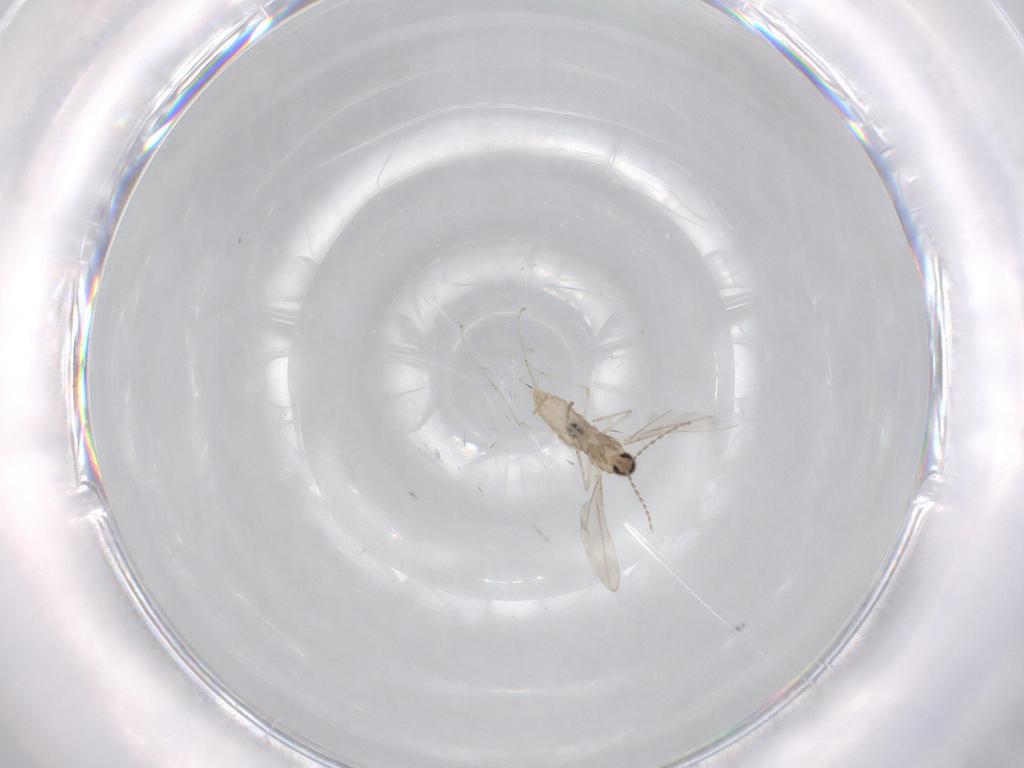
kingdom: Animalia
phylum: Arthropoda
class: Insecta
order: Diptera
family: Cecidomyiidae
